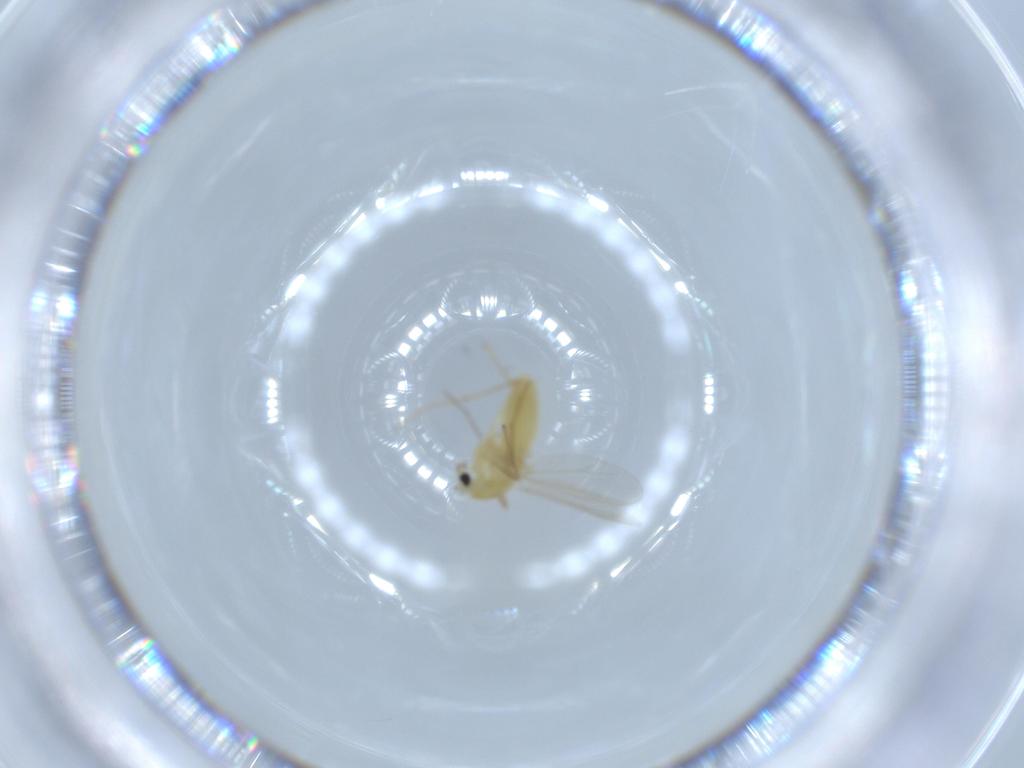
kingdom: Animalia
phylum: Arthropoda
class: Insecta
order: Diptera
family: Chironomidae
